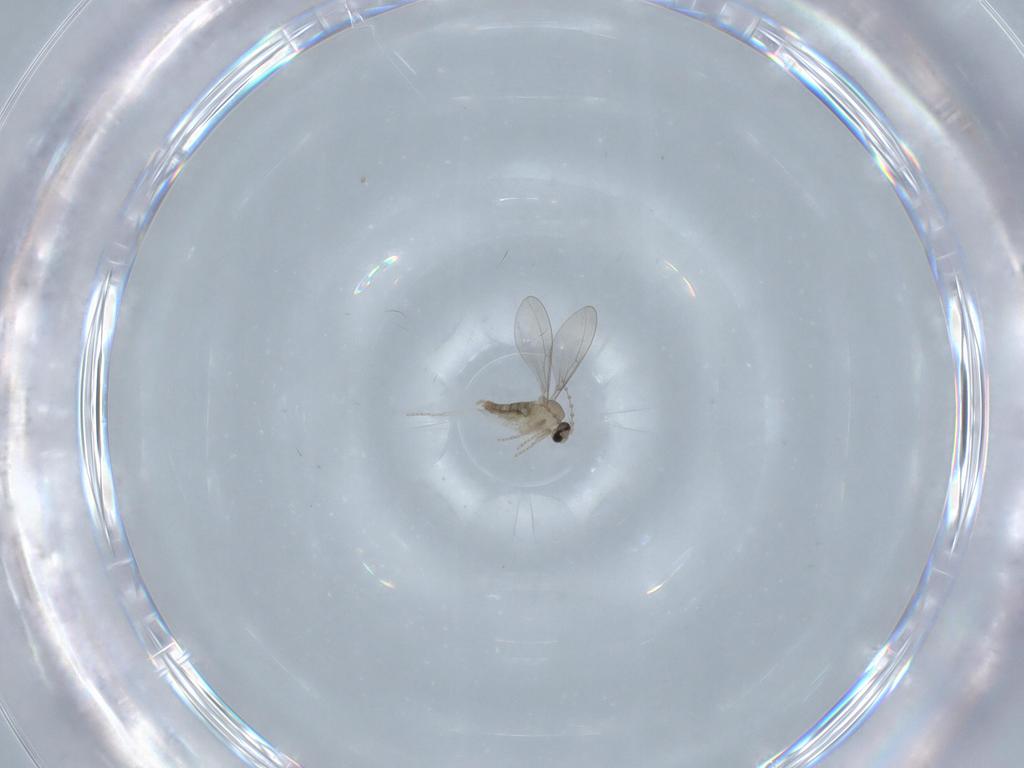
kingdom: Animalia
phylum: Arthropoda
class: Insecta
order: Diptera
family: Cecidomyiidae
